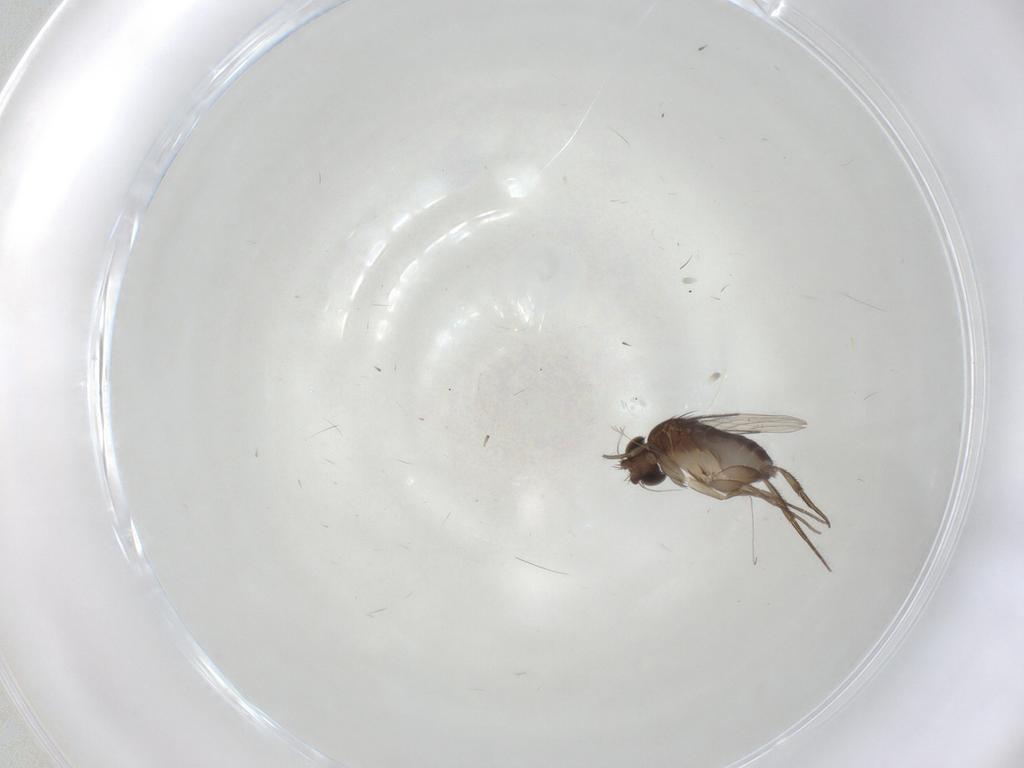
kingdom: Animalia
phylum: Arthropoda
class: Insecta
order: Diptera
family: Phoridae
